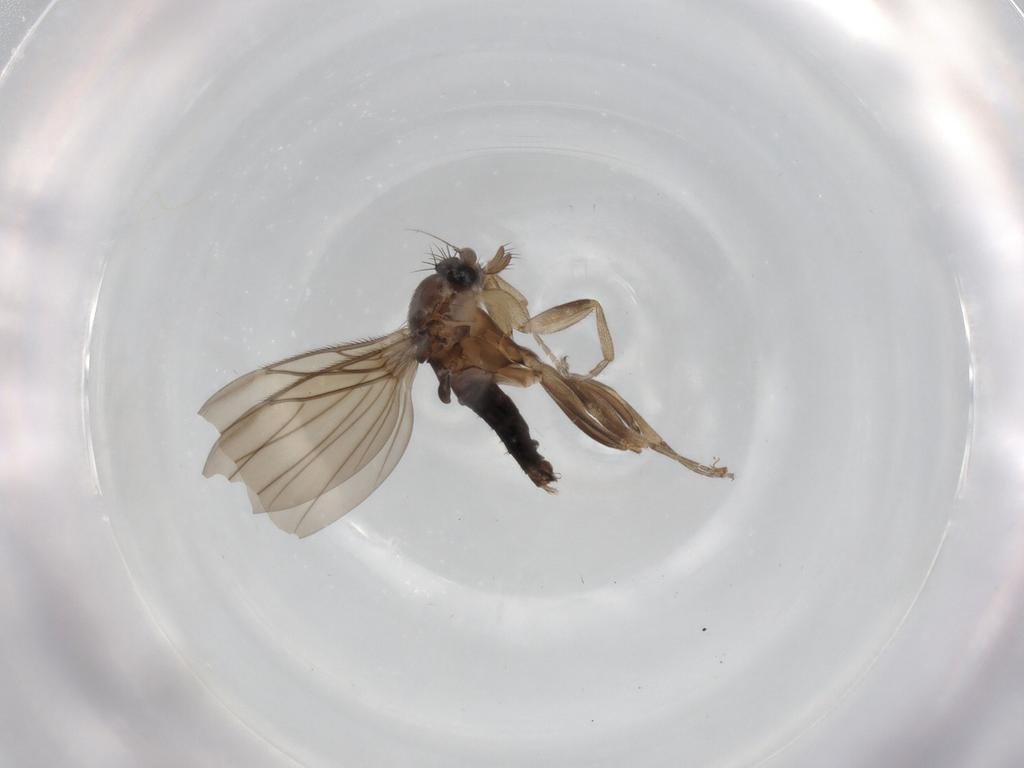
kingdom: Animalia
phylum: Arthropoda
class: Insecta
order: Diptera
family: Phoridae
